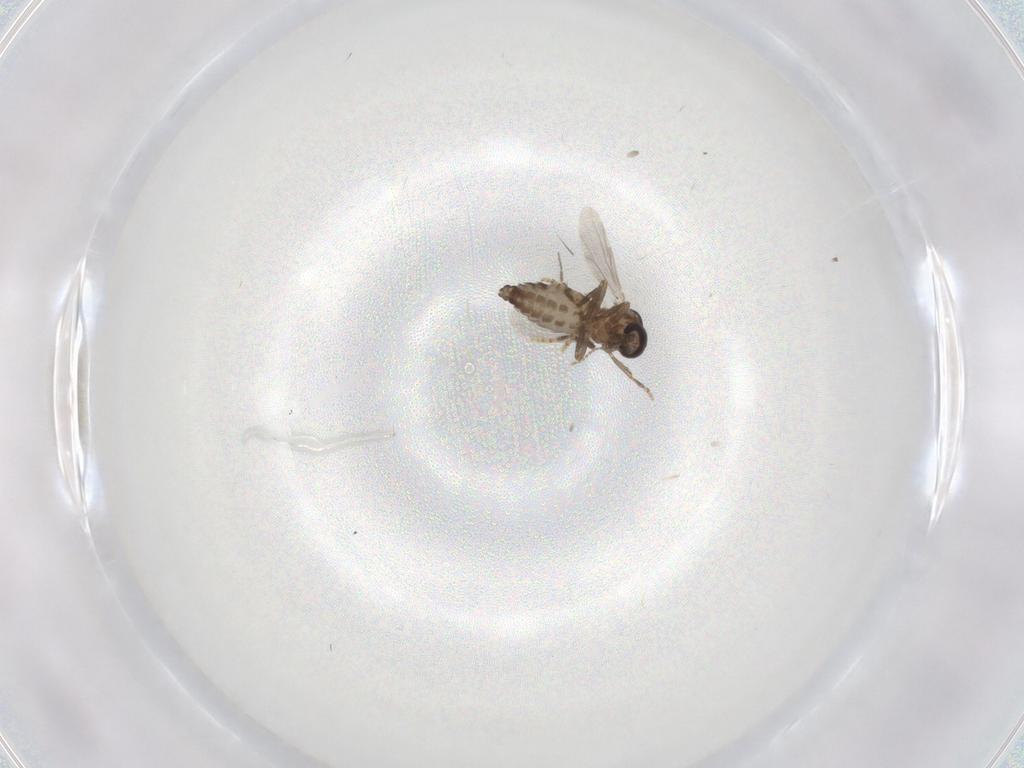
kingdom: Animalia
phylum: Arthropoda
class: Insecta
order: Diptera
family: Ceratopogonidae
